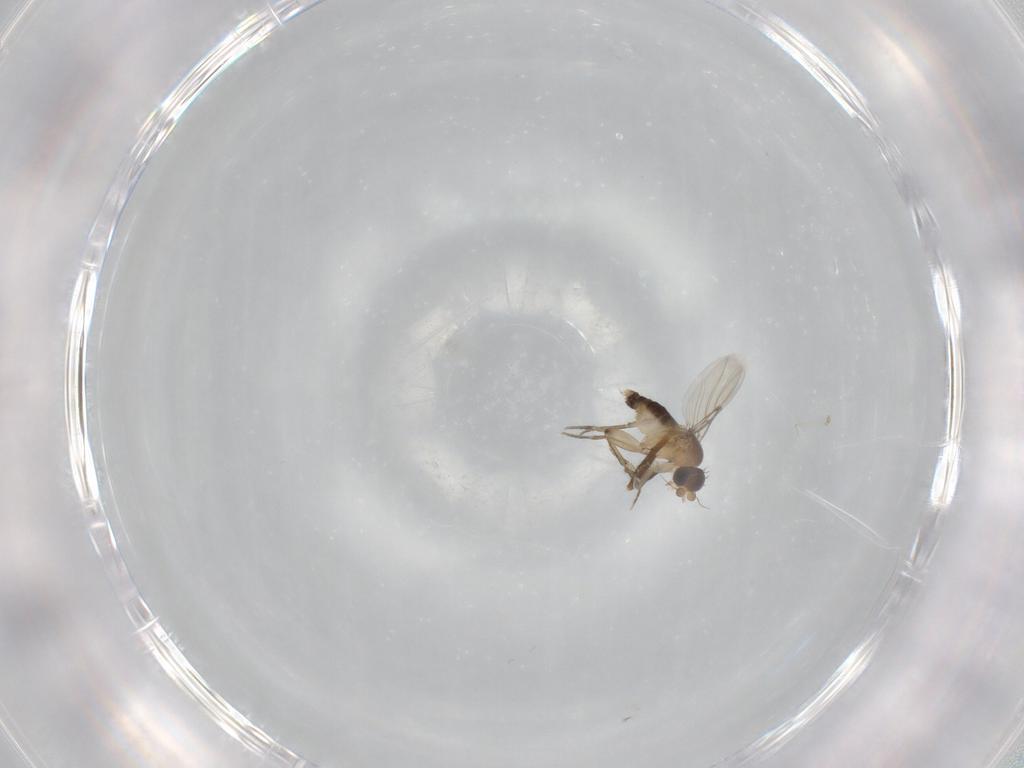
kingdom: Animalia
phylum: Arthropoda
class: Insecta
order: Diptera
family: Chironomidae
